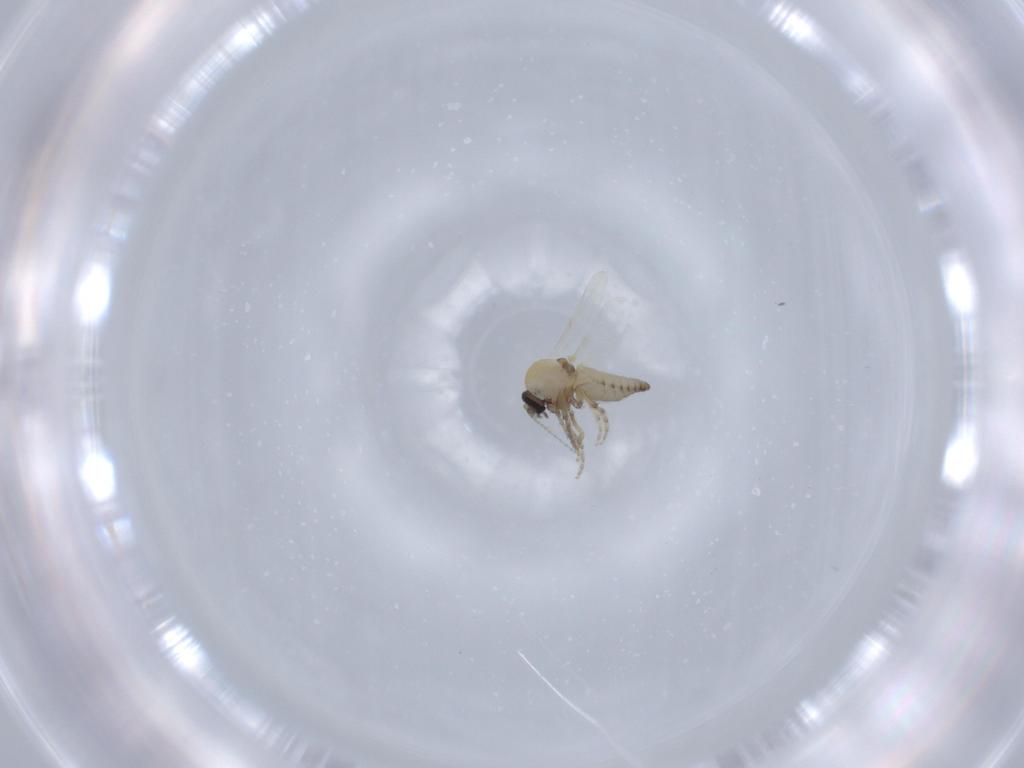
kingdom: Animalia
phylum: Arthropoda
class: Insecta
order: Diptera
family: Ceratopogonidae
